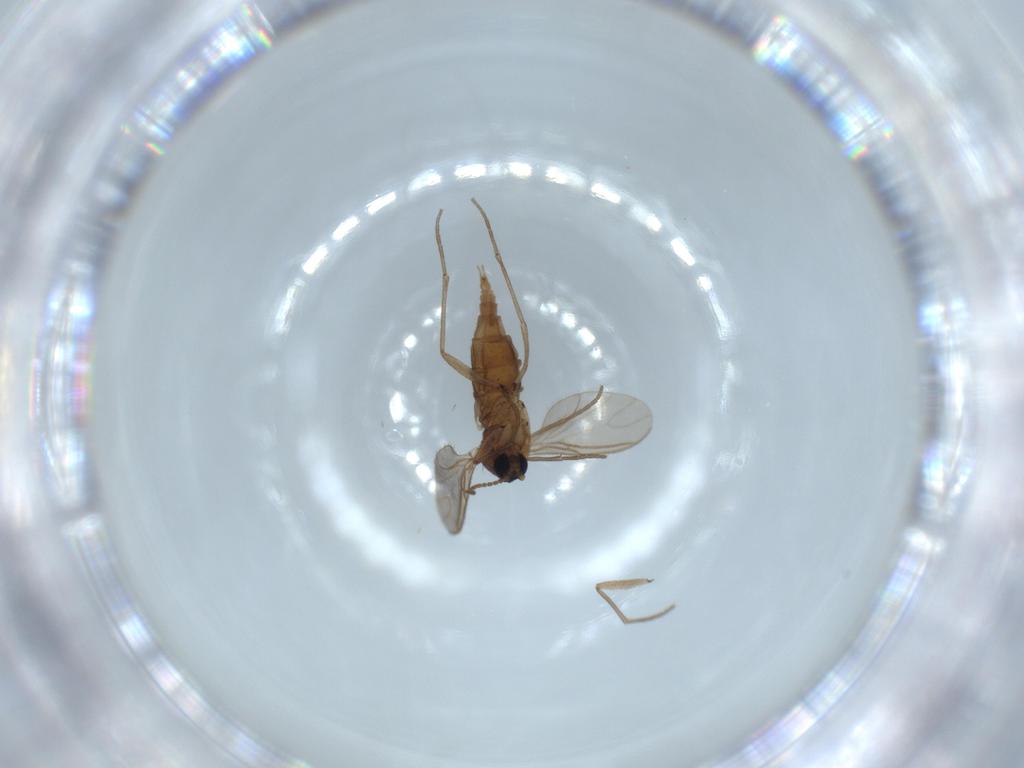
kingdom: Animalia
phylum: Arthropoda
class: Insecta
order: Diptera
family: Sciaridae
